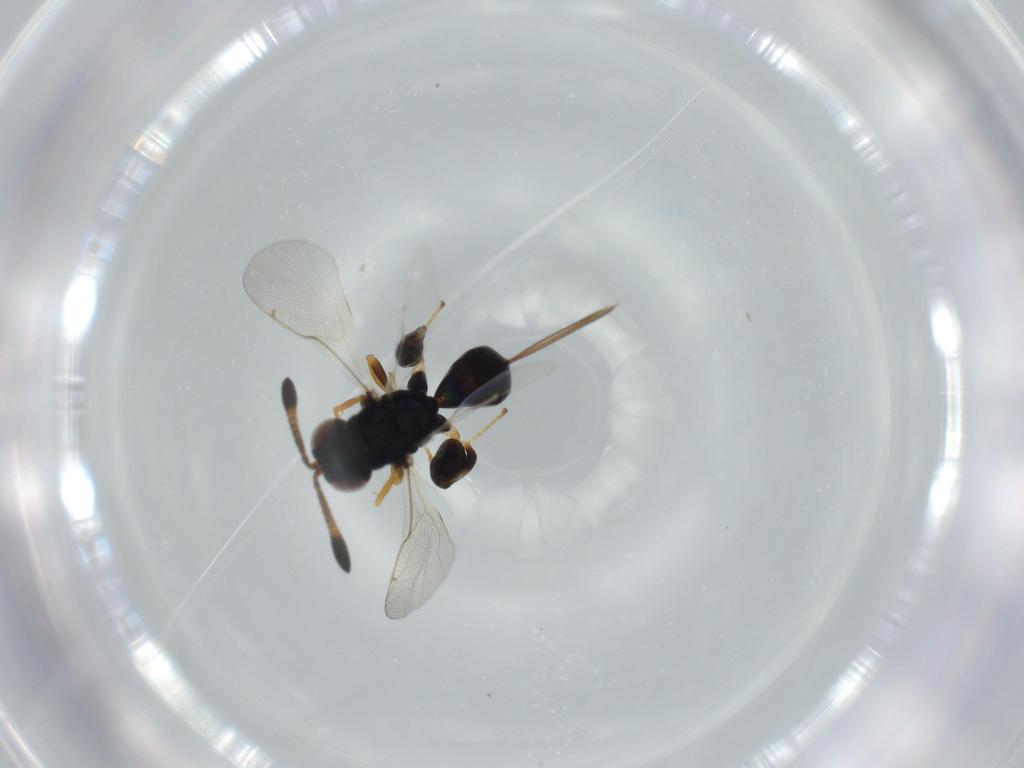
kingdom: Animalia
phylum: Arthropoda
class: Insecta
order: Hymenoptera
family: Torymidae
